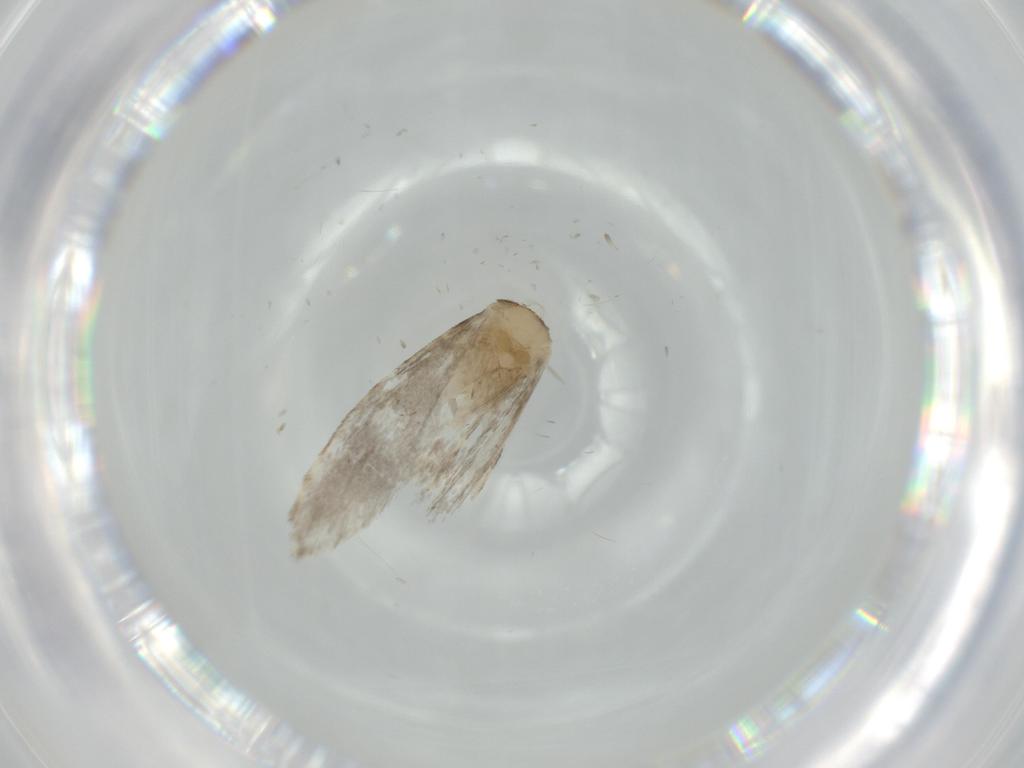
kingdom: Animalia
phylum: Arthropoda
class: Insecta
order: Lepidoptera
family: Tineidae
